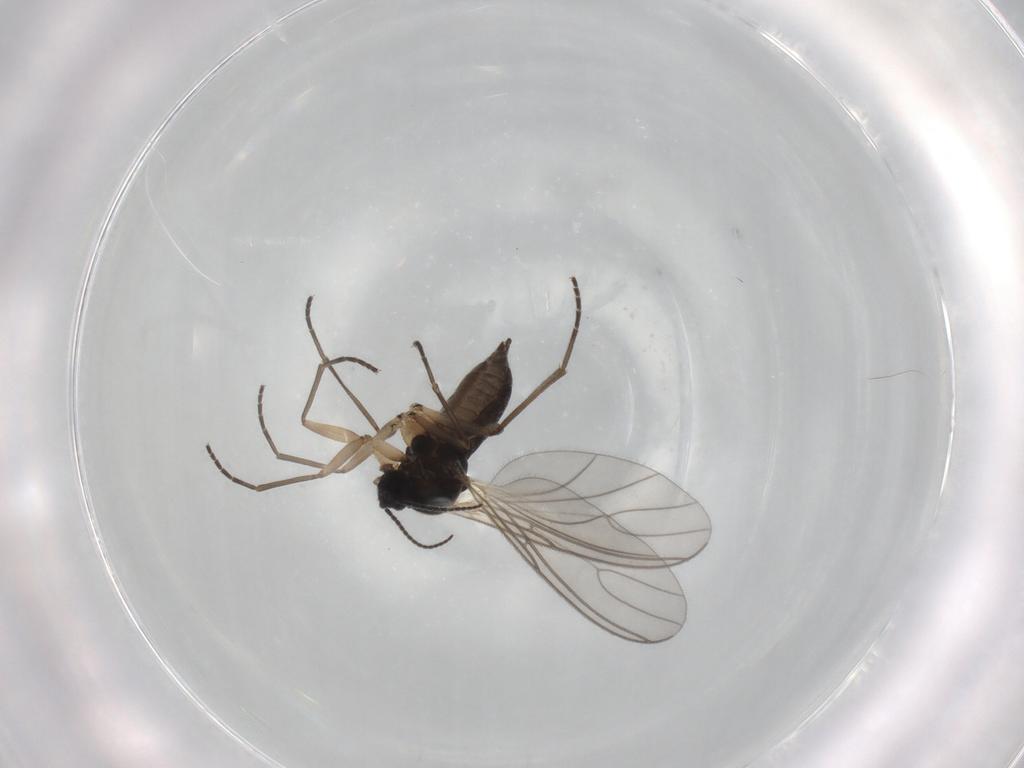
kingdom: Animalia
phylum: Arthropoda
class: Insecta
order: Diptera
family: Sciaridae
